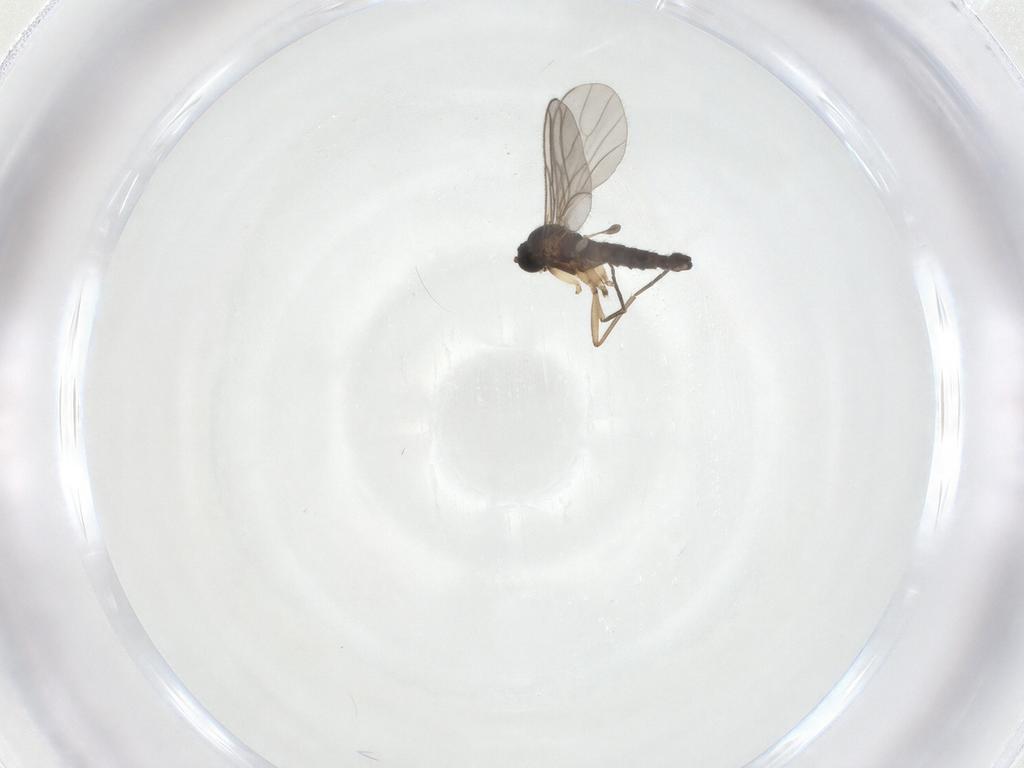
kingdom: Animalia
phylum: Arthropoda
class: Insecta
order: Diptera
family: Sciaridae
